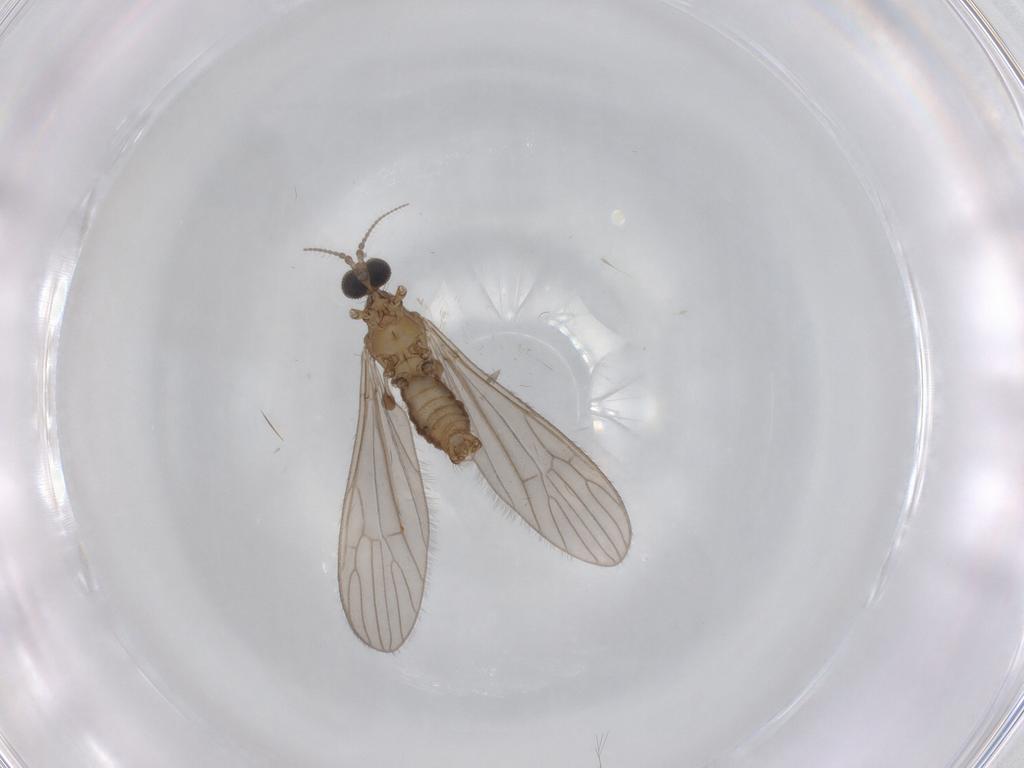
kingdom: Animalia
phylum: Arthropoda
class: Insecta
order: Diptera
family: Sciaridae
